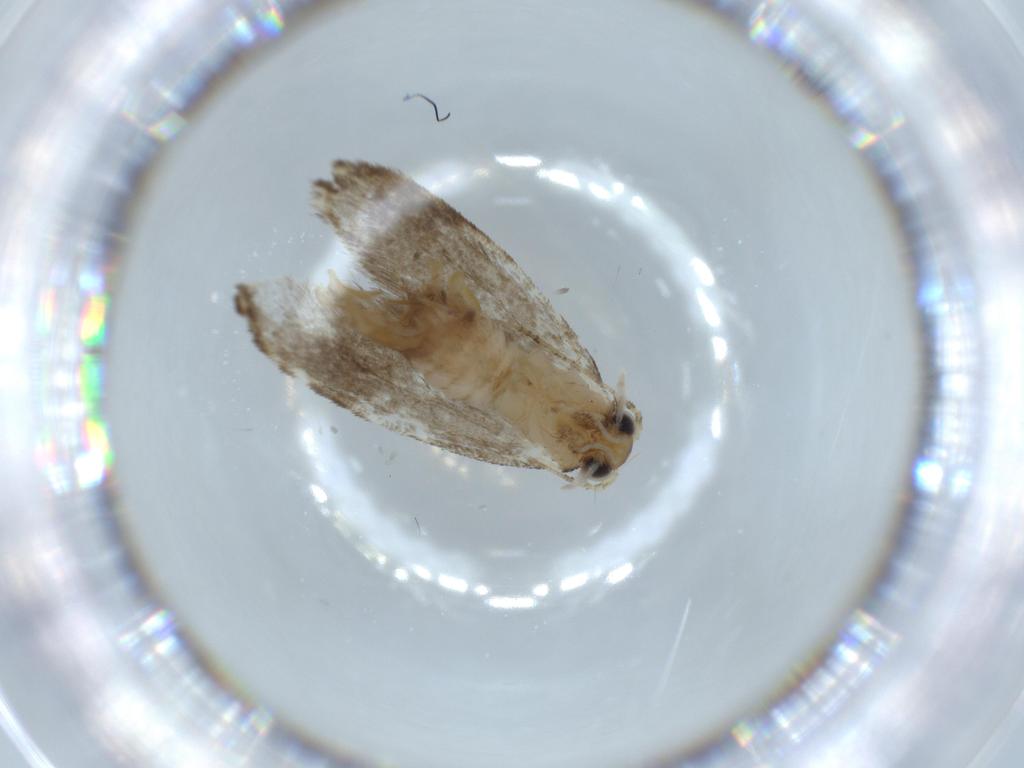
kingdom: Animalia
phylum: Arthropoda
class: Insecta
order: Lepidoptera
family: Tineidae
